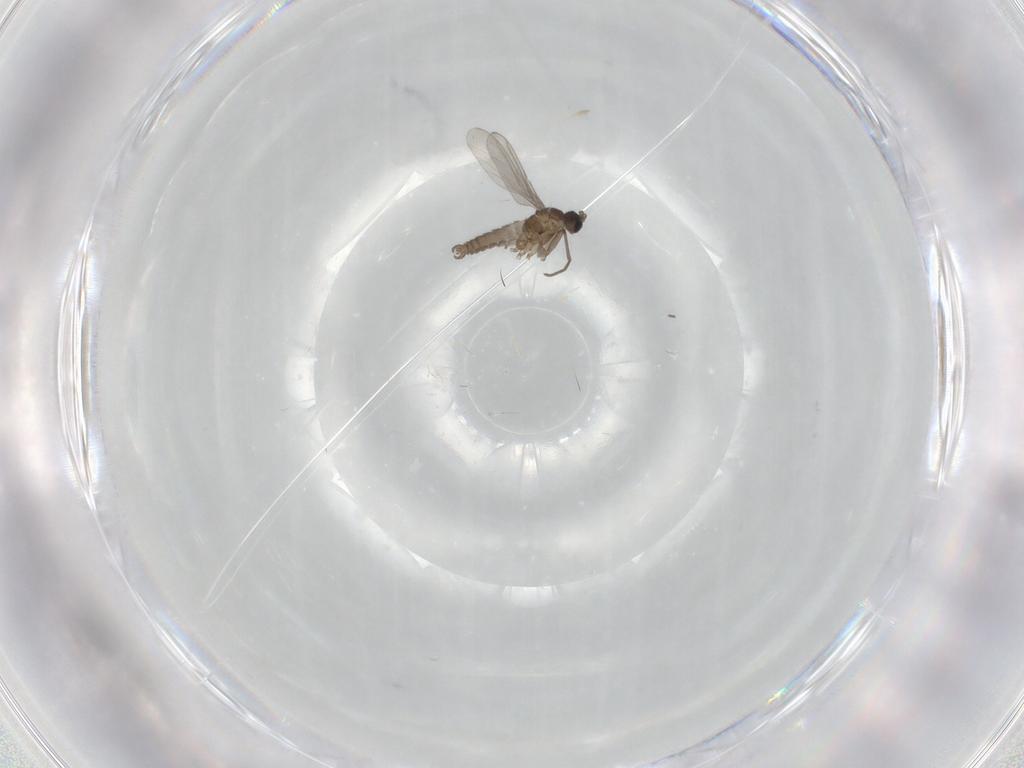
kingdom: Animalia
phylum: Arthropoda
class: Insecta
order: Diptera
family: Sciaridae
